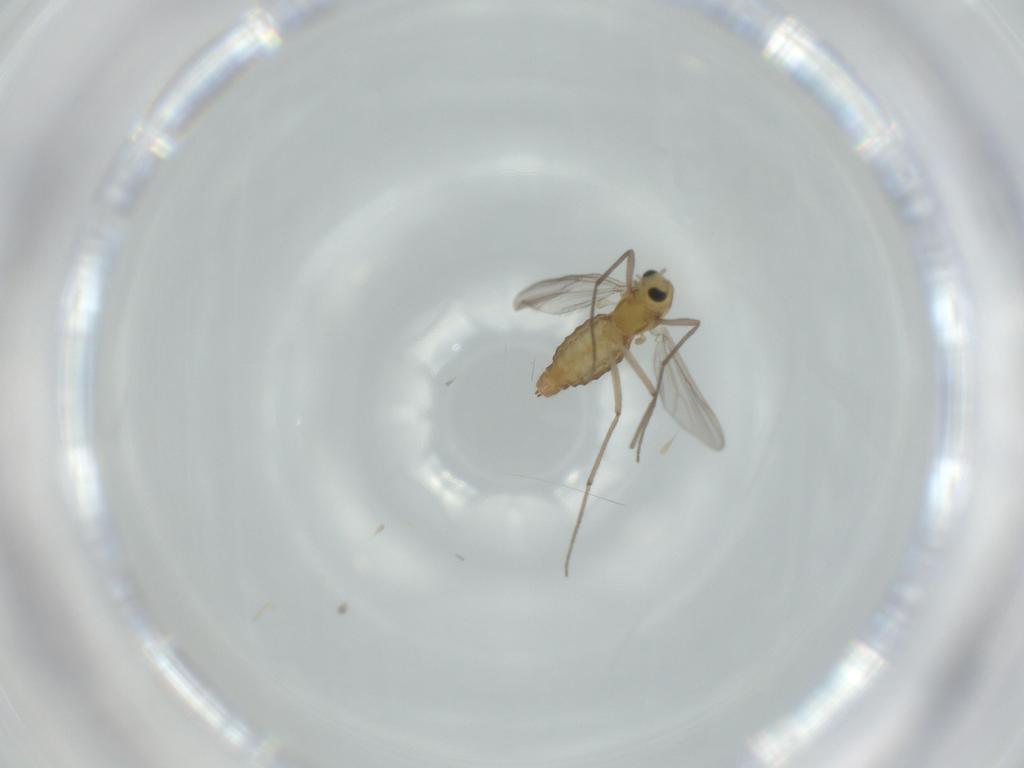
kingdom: Animalia
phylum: Arthropoda
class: Insecta
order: Diptera
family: Chironomidae
